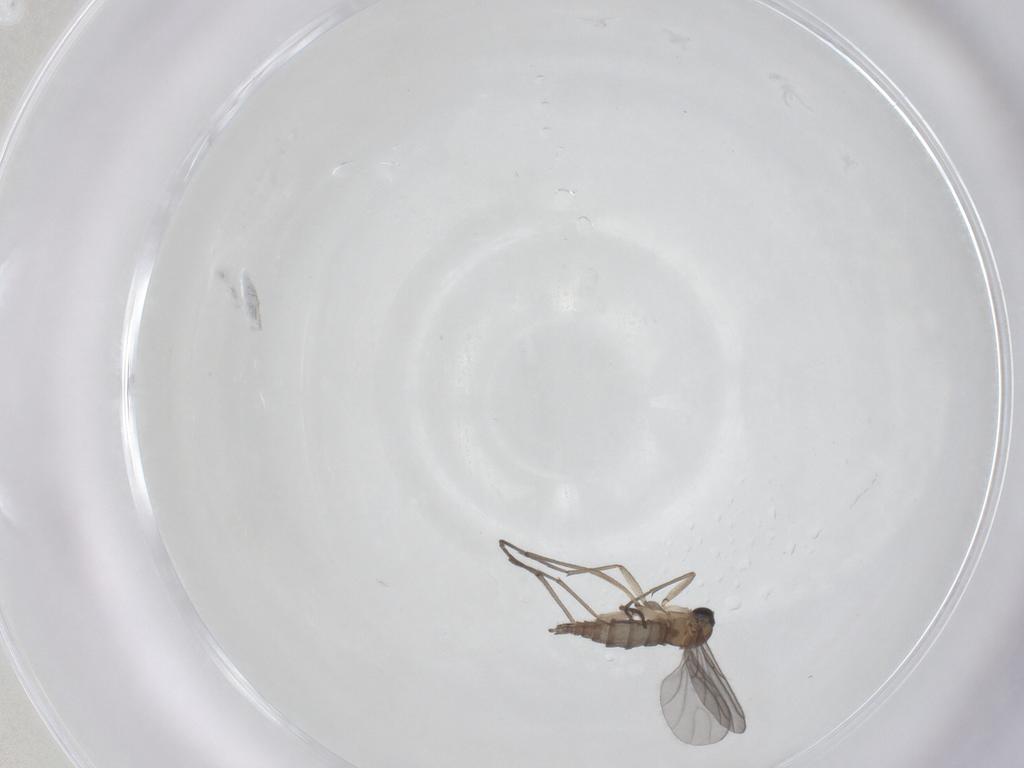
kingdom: Animalia
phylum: Arthropoda
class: Insecta
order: Diptera
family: Sciaridae
